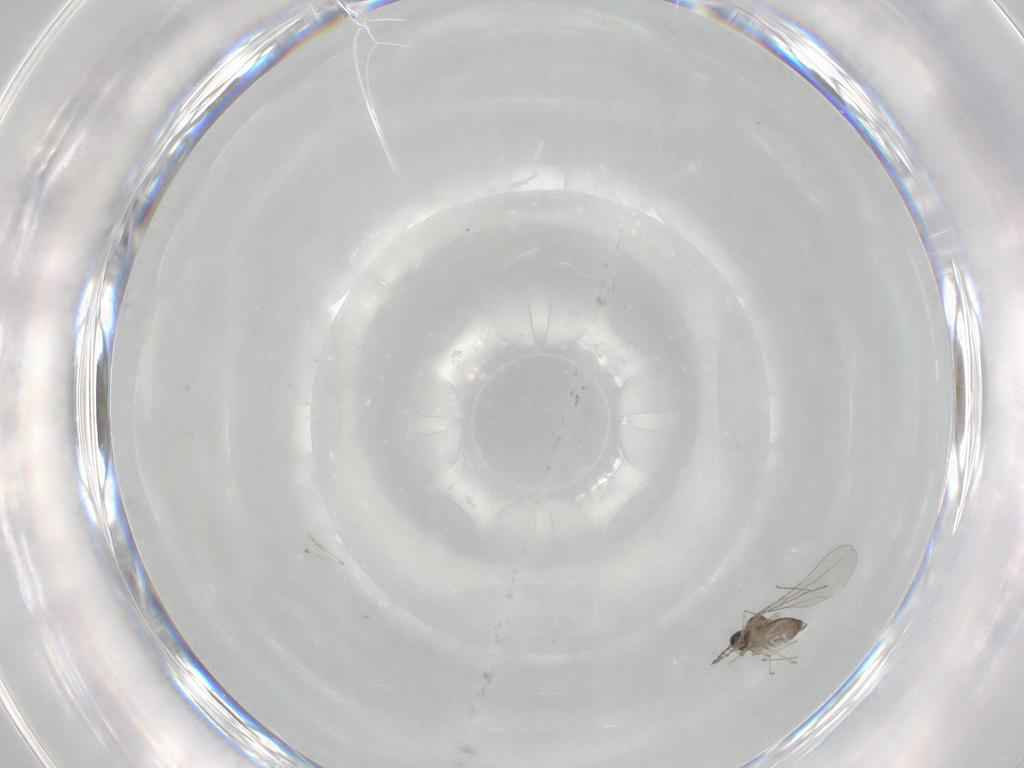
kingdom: Animalia
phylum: Arthropoda
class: Insecta
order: Diptera
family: Cecidomyiidae
